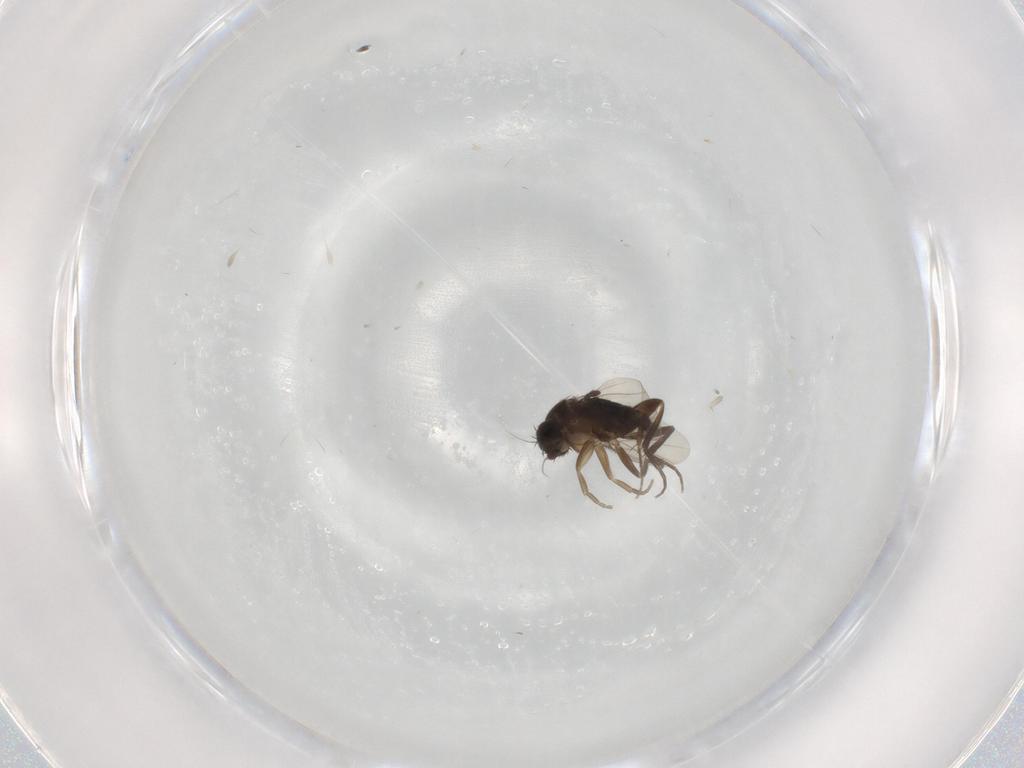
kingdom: Animalia
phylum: Arthropoda
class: Insecta
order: Diptera
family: Phoridae
